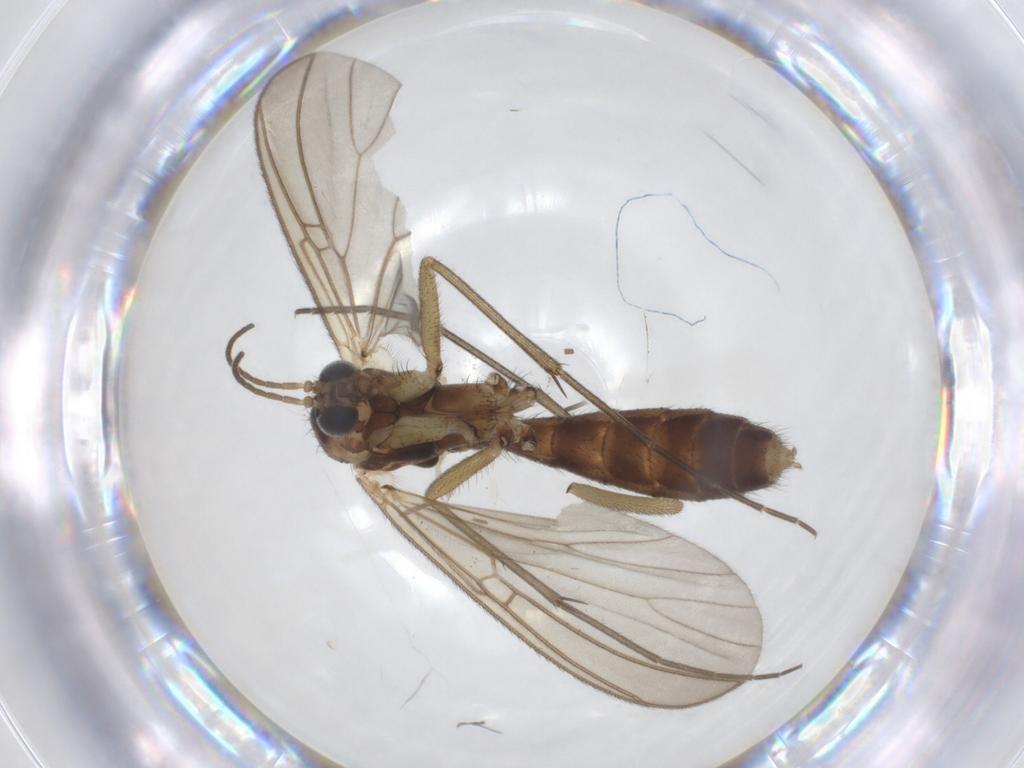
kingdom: Animalia
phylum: Arthropoda
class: Insecta
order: Diptera
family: Mycetophilidae
